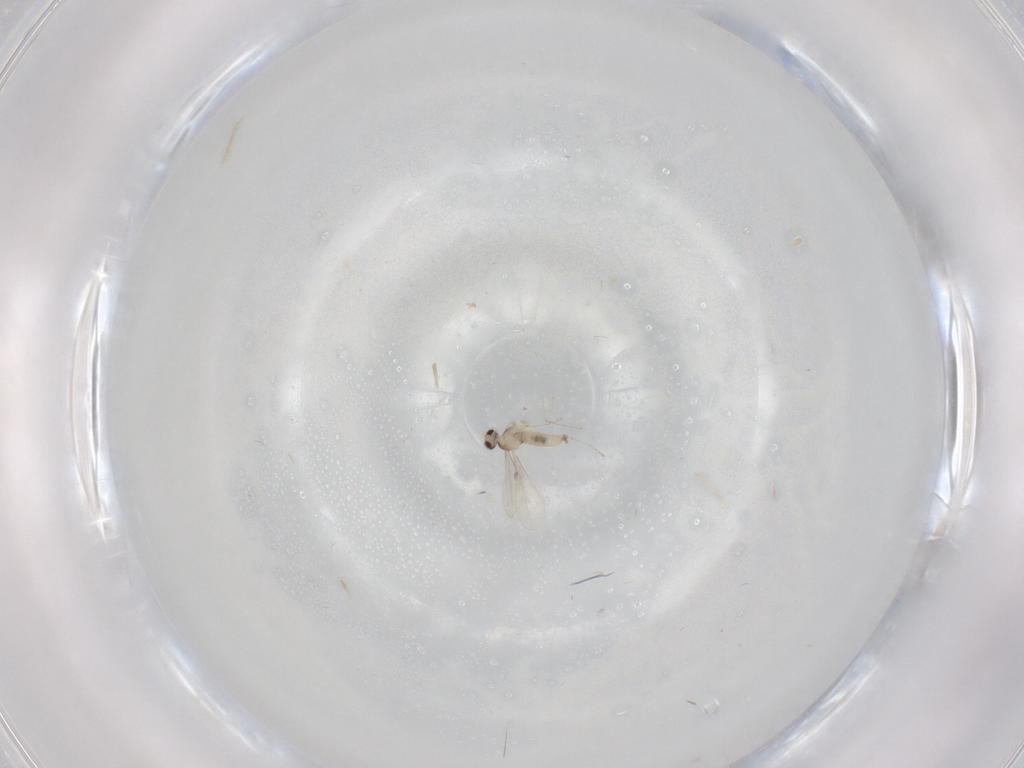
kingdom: Animalia
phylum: Arthropoda
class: Insecta
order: Diptera
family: Cecidomyiidae
